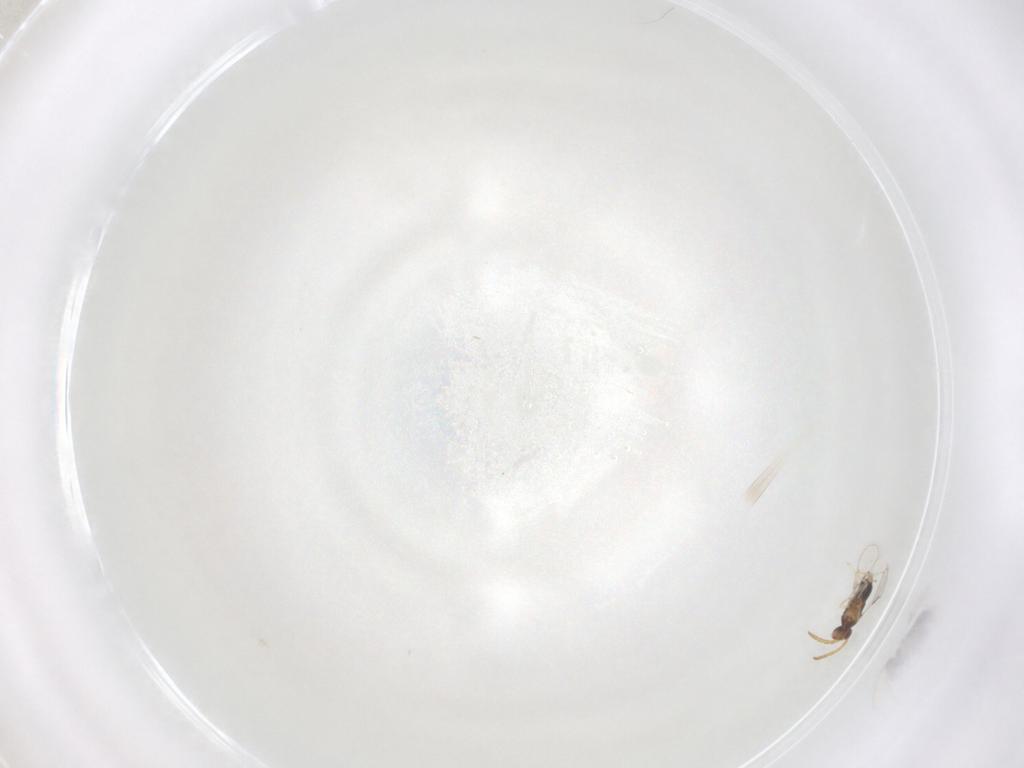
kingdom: Animalia
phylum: Arthropoda
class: Insecta
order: Hymenoptera
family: Aphelinidae
